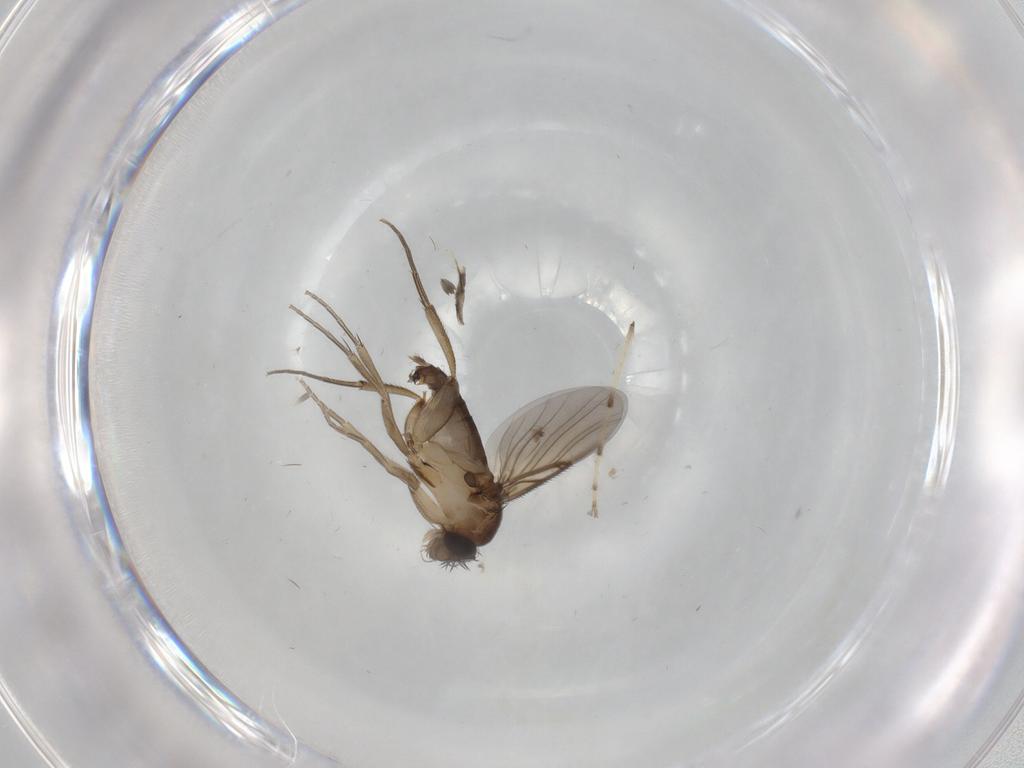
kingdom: Animalia
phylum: Arthropoda
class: Insecta
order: Diptera
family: Phoridae
